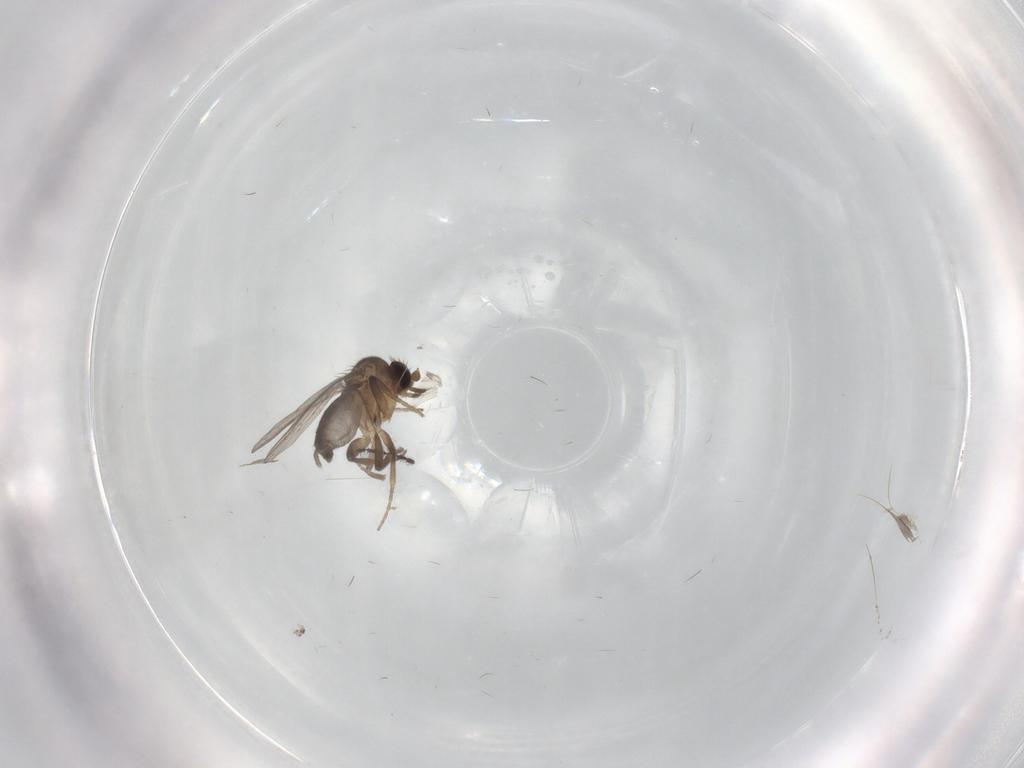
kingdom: Animalia
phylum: Arthropoda
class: Insecta
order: Diptera
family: Cecidomyiidae
